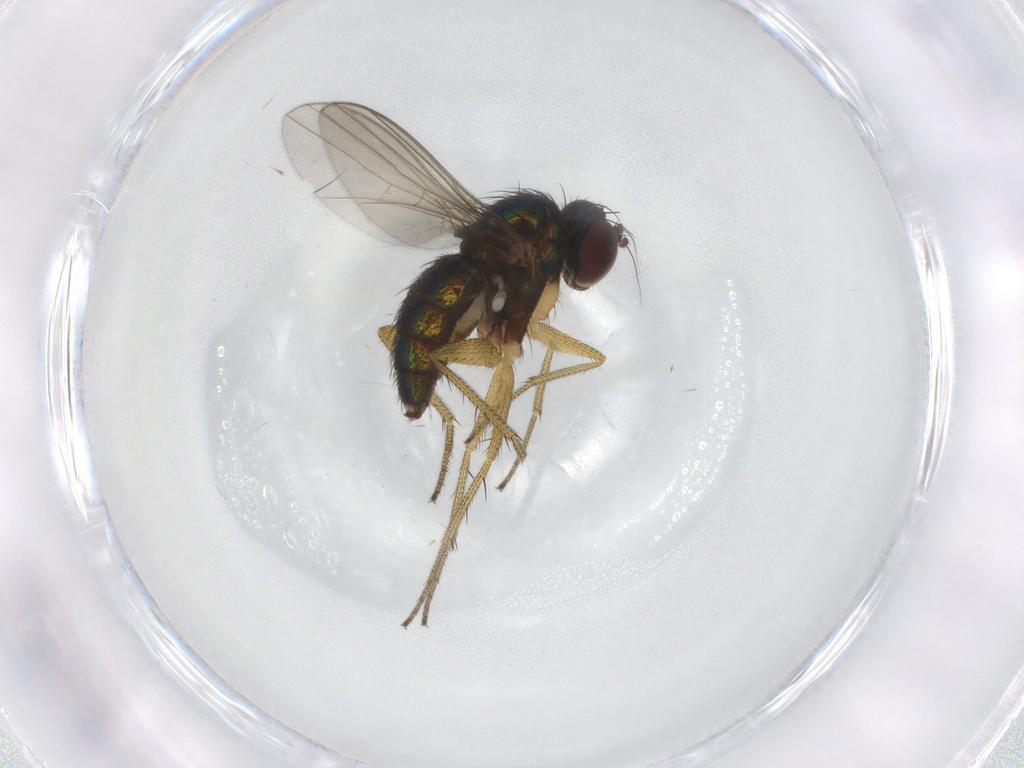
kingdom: Animalia
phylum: Arthropoda
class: Insecta
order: Diptera
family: Dolichopodidae
